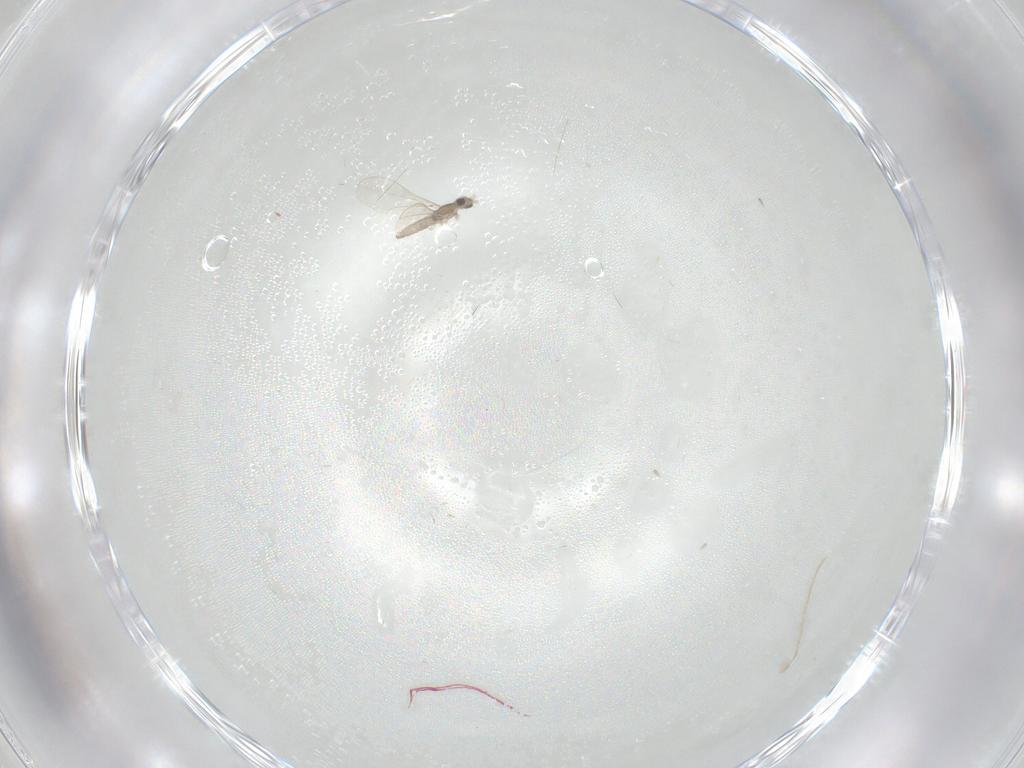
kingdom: Animalia
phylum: Arthropoda
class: Insecta
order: Diptera
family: Cecidomyiidae
